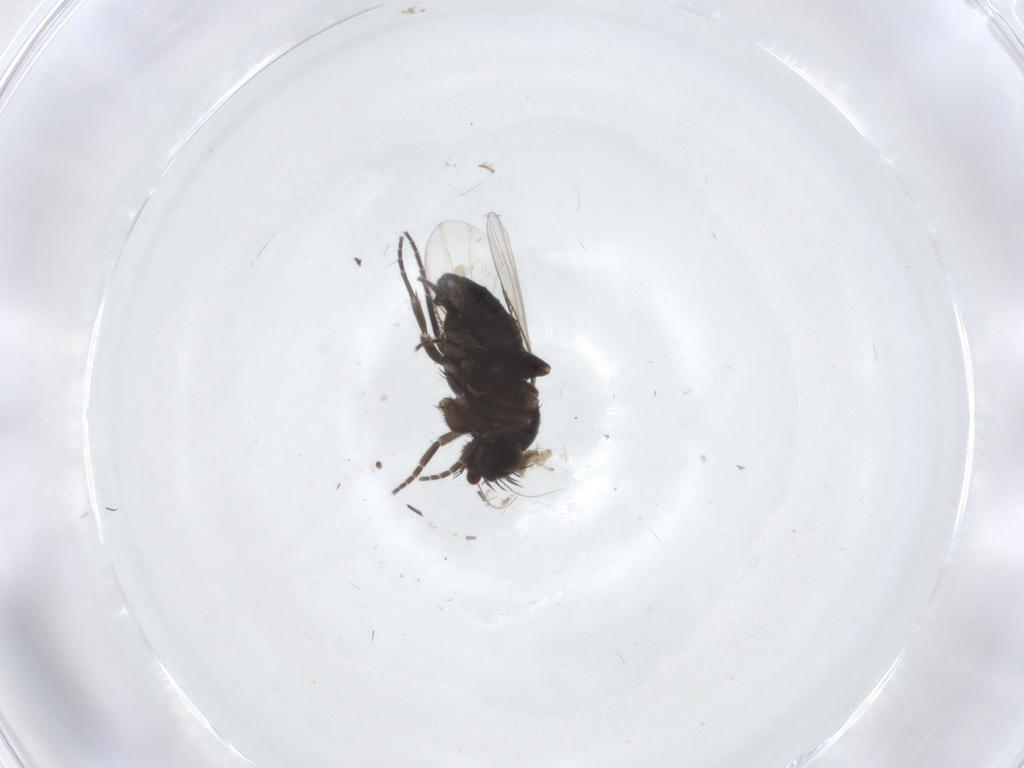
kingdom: Animalia
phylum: Arthropoda
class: Insecta
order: Diptera
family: Phoridae
